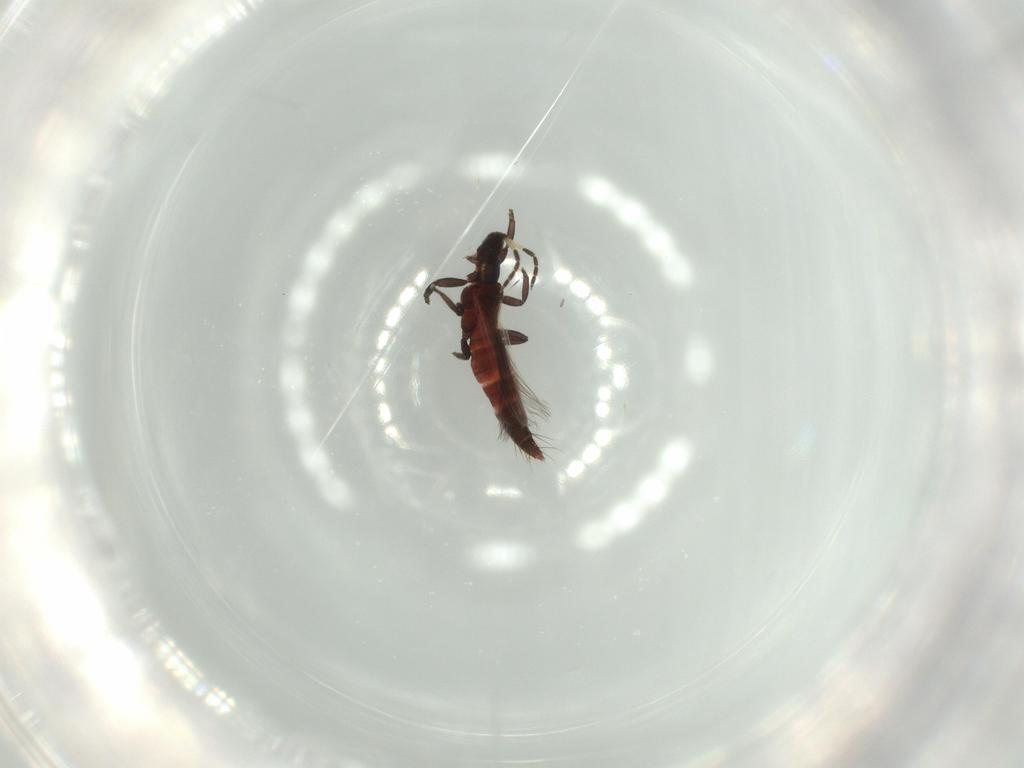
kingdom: Animalia
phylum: Arthropoda
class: Insecta
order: Thysanoptera
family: Aeolothripidae
